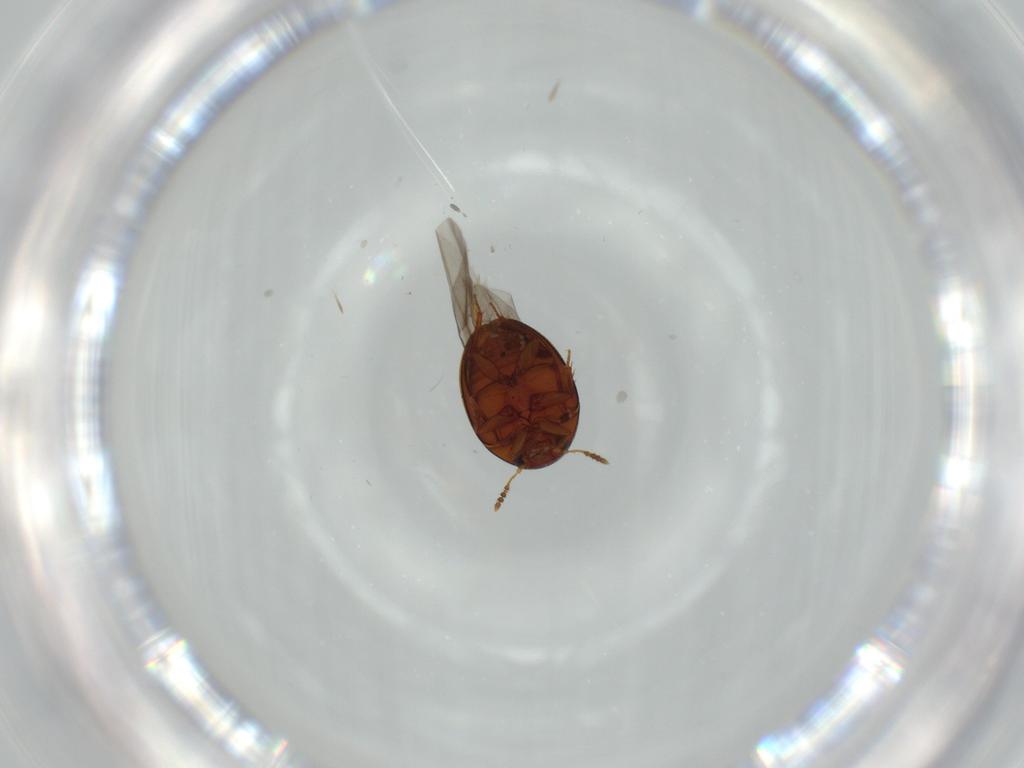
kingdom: Animalia
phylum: Arthropoda
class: Insecta
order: Coleoptera
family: Leiodidae
